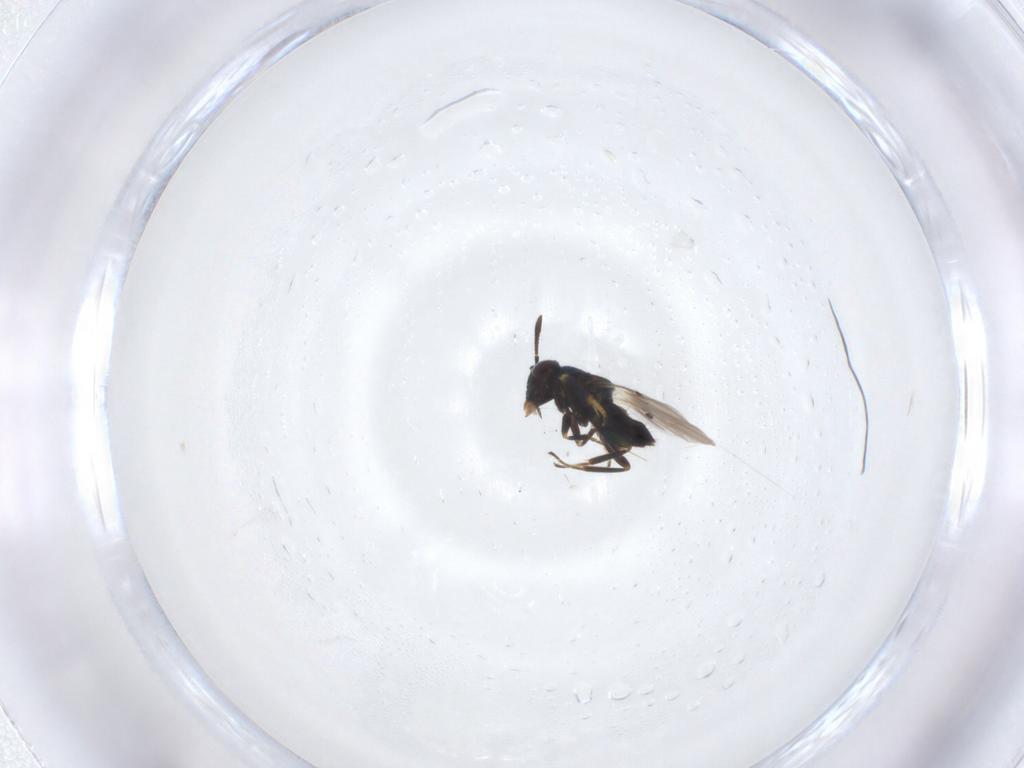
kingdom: Animalia
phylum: Arthropoda
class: Insecta
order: Hymenoptera
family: Encyrtidae
